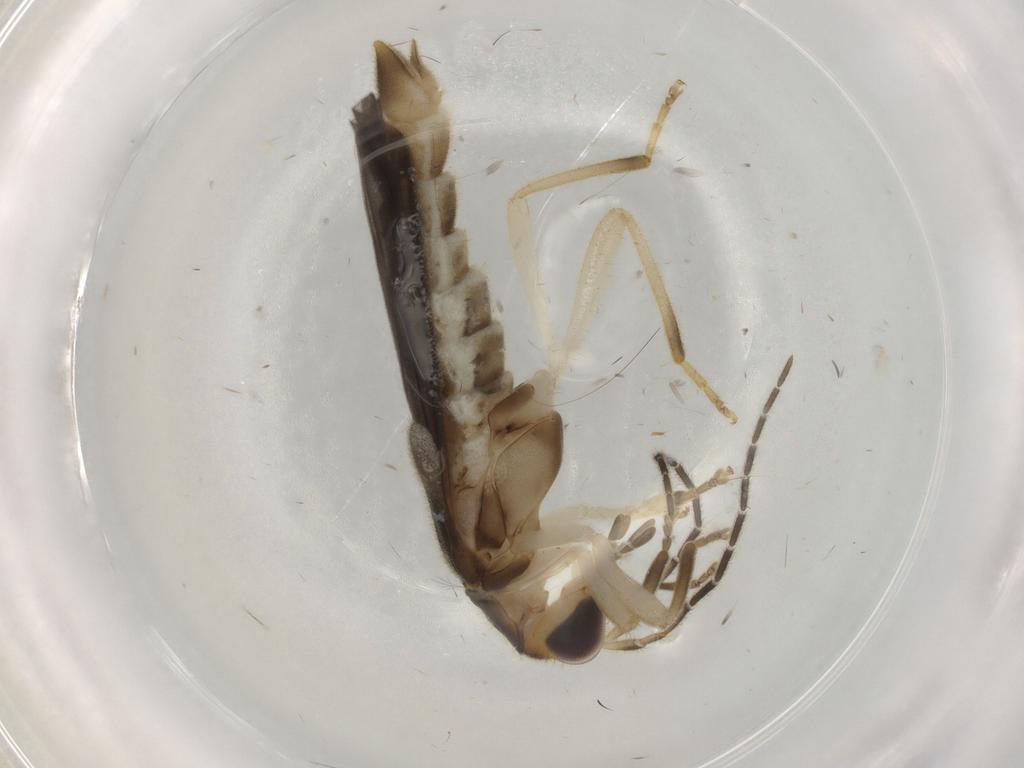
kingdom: Animalia
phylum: Arthropoda
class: Insecta
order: Coleoptera
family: Cantharidae
